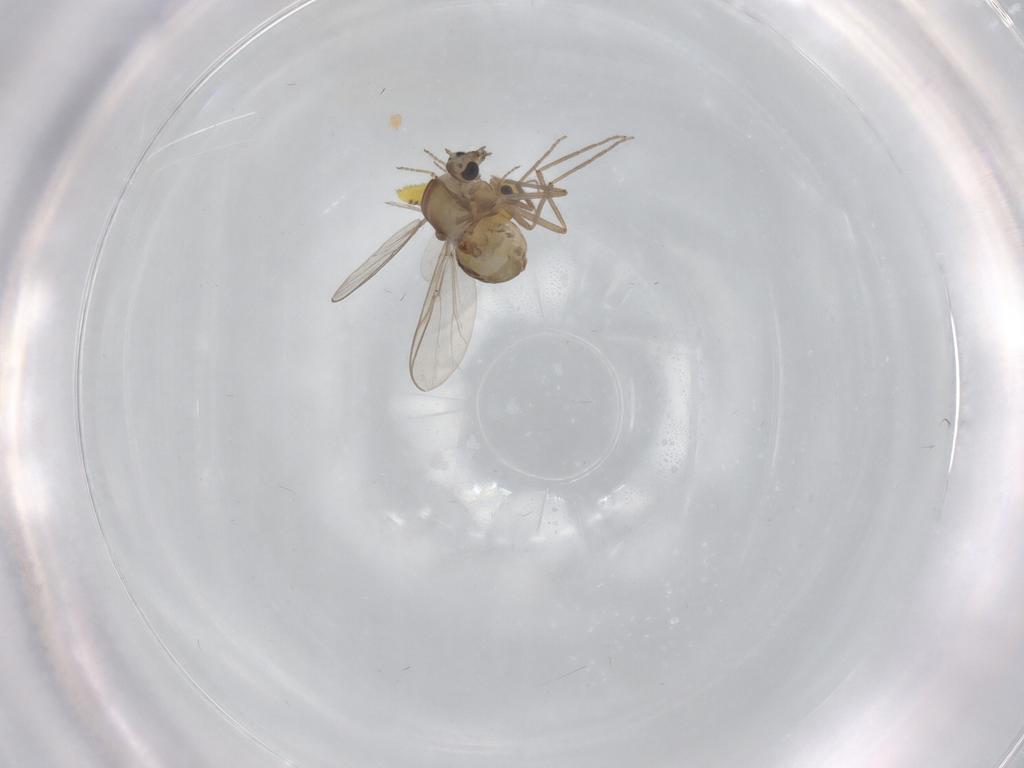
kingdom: Animalia
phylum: Arthropoda
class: Insecta
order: Diptera
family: Chironomidae
